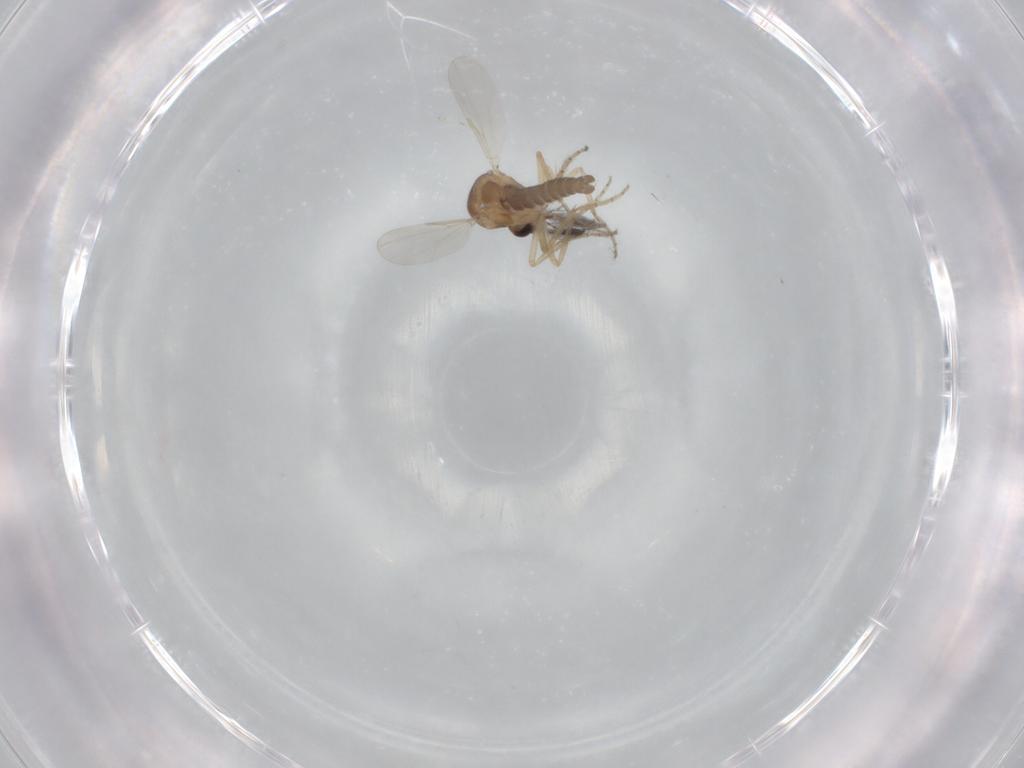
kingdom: Animalia
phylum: Arthropoda
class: Insecta
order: Diptera
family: Ceratopogonidae
